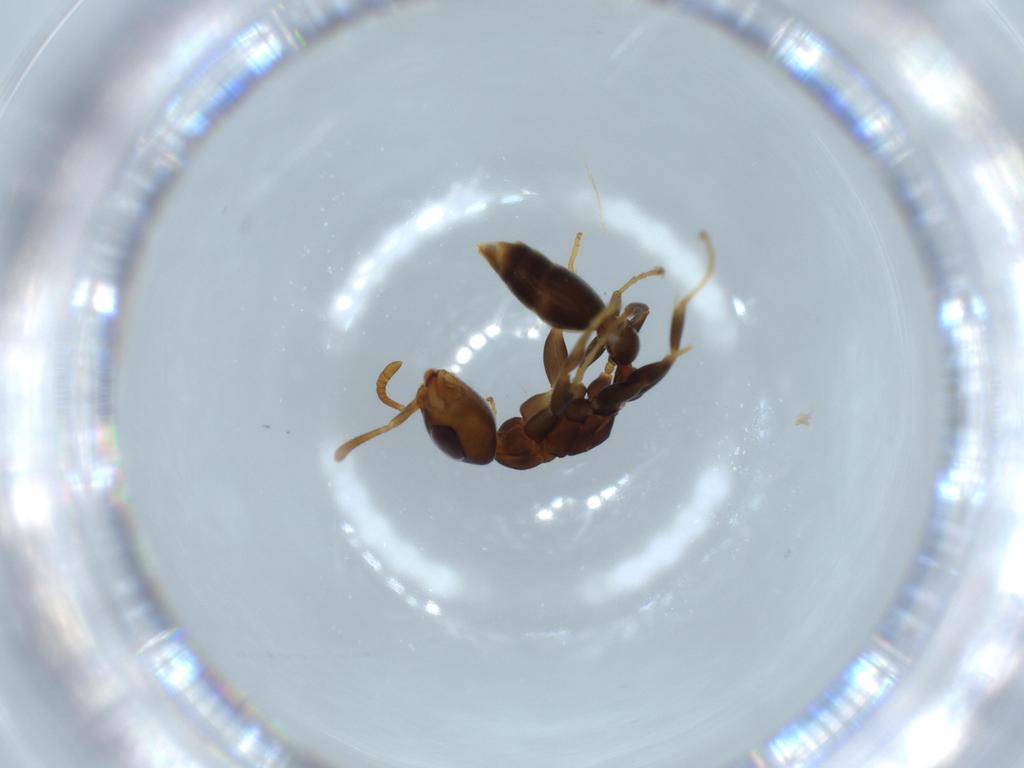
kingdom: Animalia
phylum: Arthropoda
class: Insecta
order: Hymenoptera
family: Formicidae
